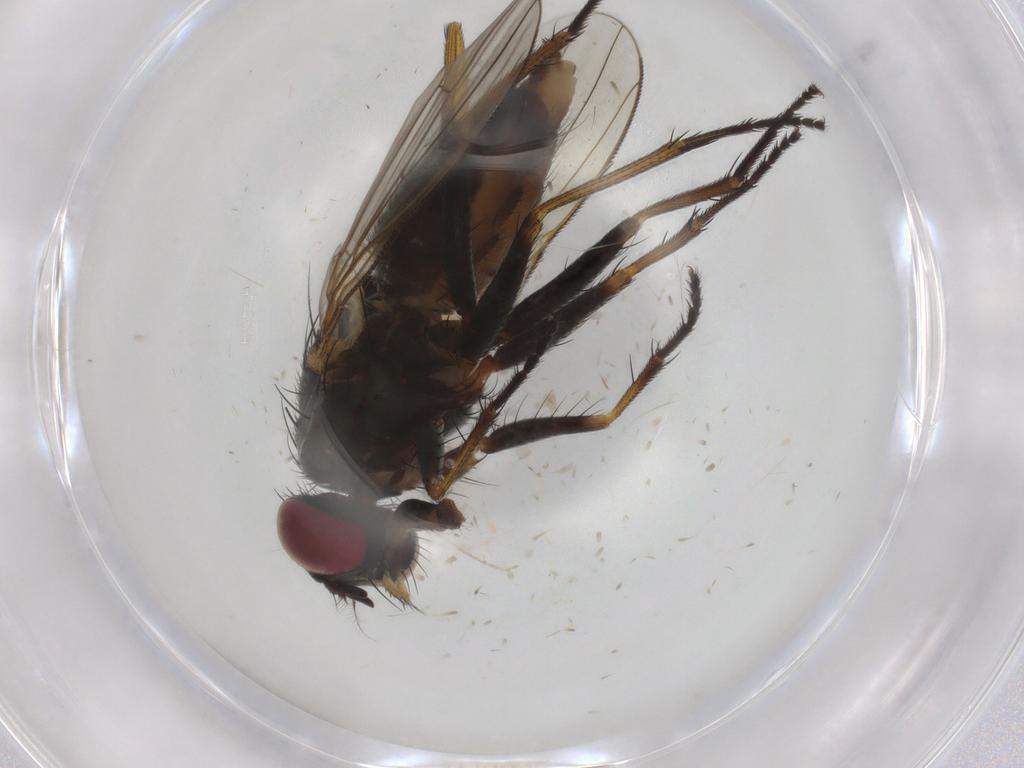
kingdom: Animalia
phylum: Arthropoda
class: Insecta
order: Diptera
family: Muscidae
